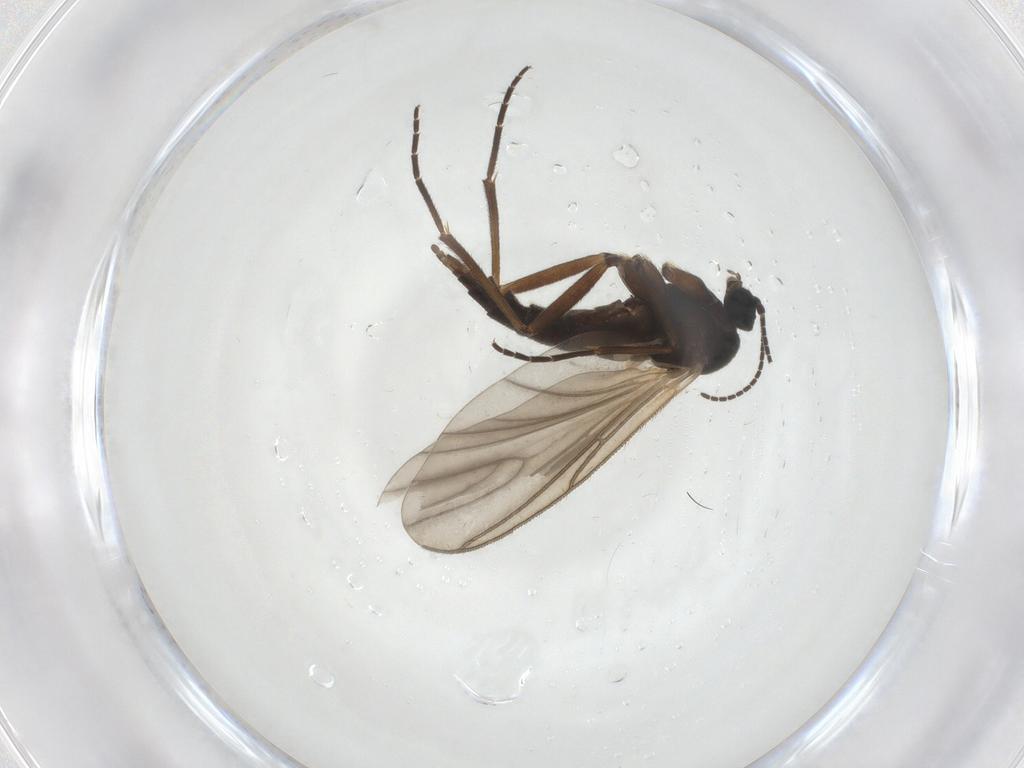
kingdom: Animalia
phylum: Arthropoda
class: Insecta
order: Diptera
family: Sciaridae
